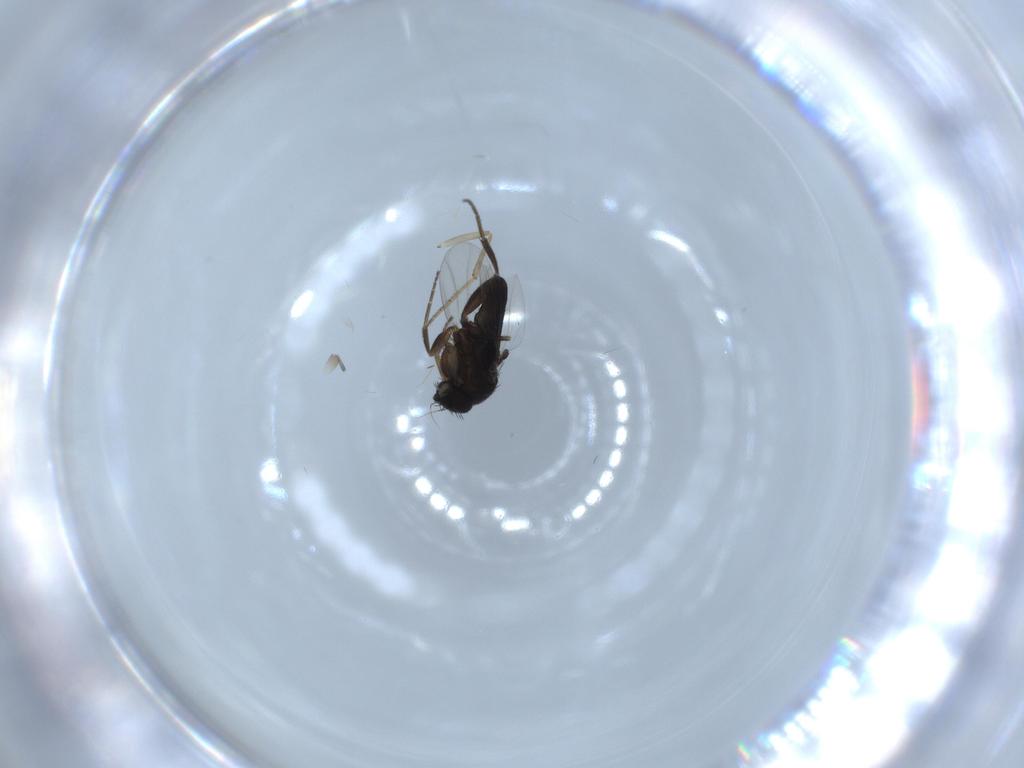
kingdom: Animalia
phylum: Arthropoda
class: Insecta
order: Diptera
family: Phoridae
